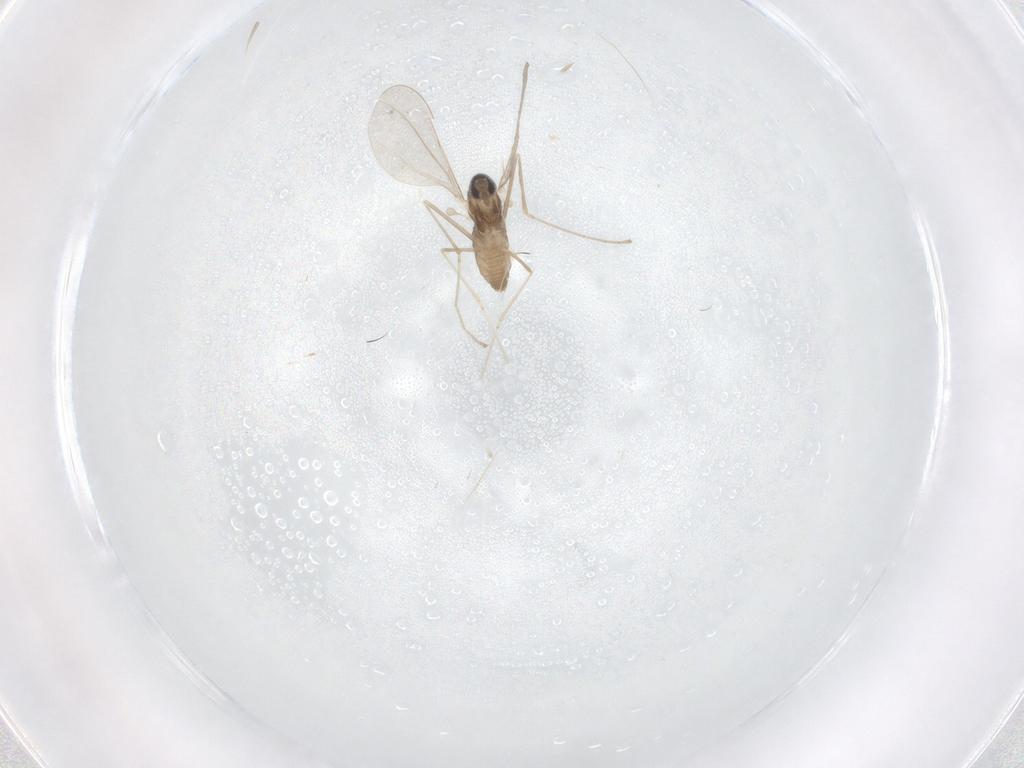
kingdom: Animalia
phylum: Arthropoda
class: Insecta
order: Diptera
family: Cecidomyiidae
